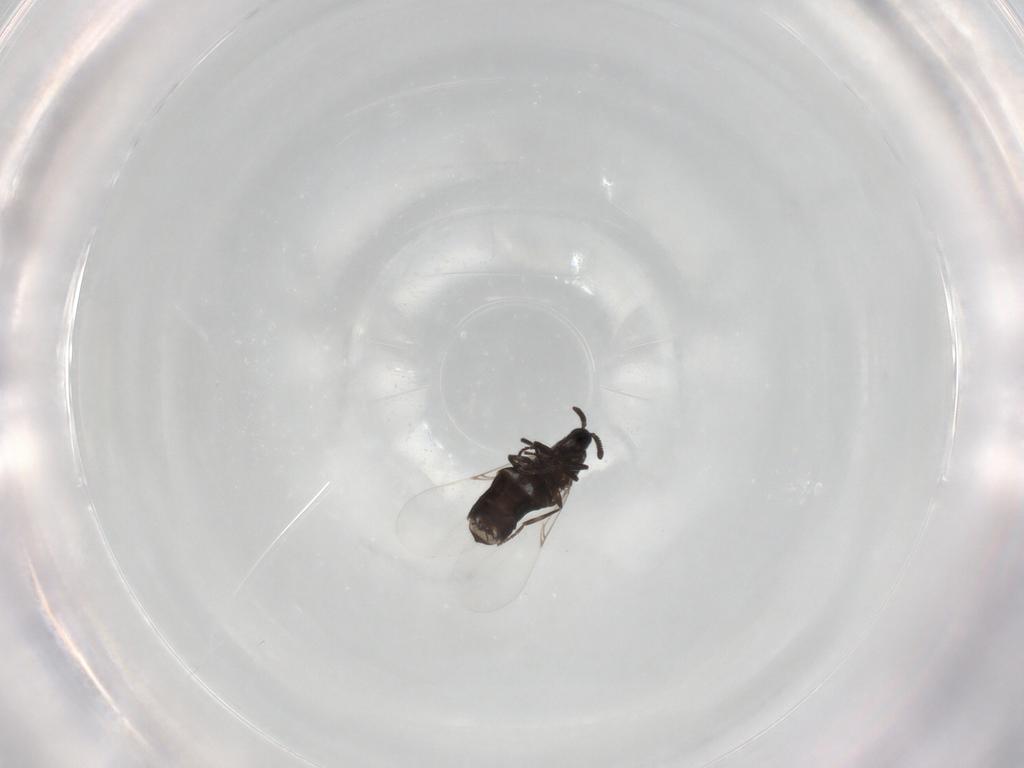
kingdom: Animalia
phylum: Arthropoda
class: Insecta
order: Diptera
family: Scatopsidae
